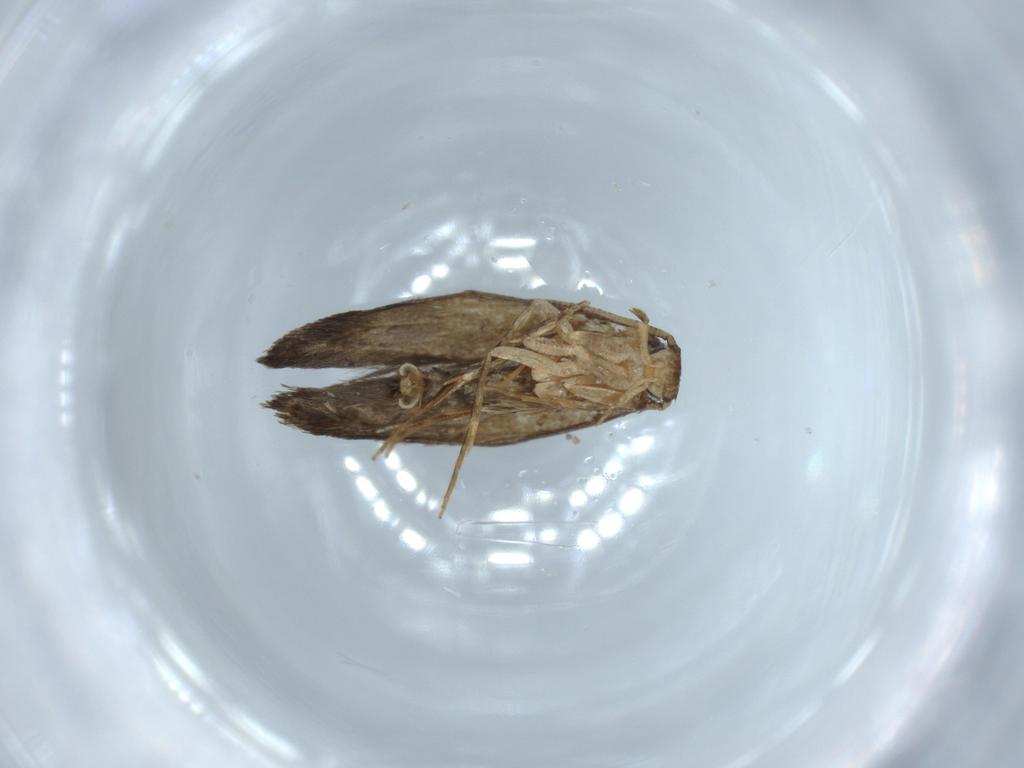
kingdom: Animalia
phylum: Arthropoda
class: Insecta
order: Lepidoptera
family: Tineidae
